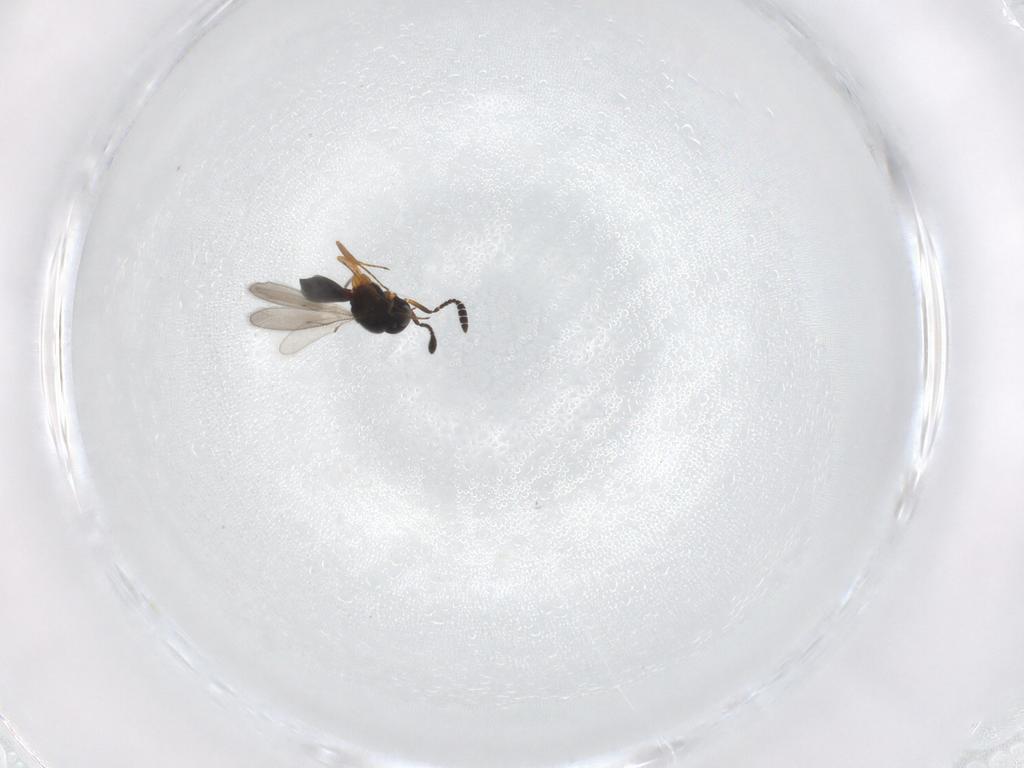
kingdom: Animalia
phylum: Arthropoda
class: Insecta
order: Hymenoptera
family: Scelionidae
